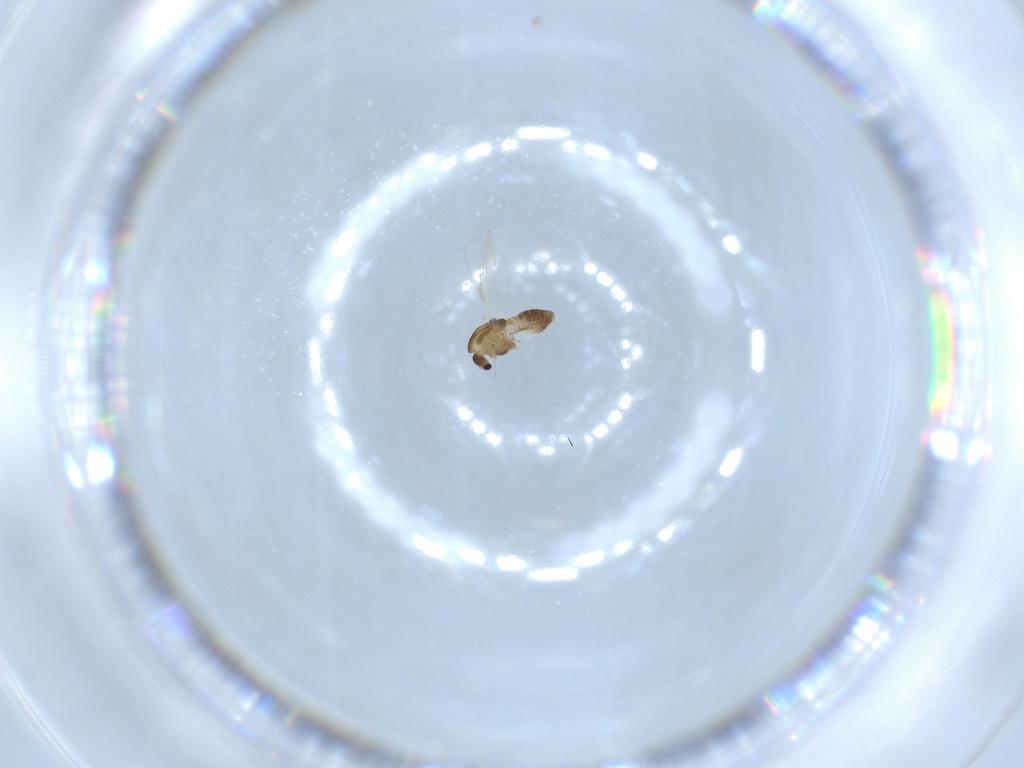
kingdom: Animalia
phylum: Arthropoda
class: Insecta
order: Diptera
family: Chironomidae
